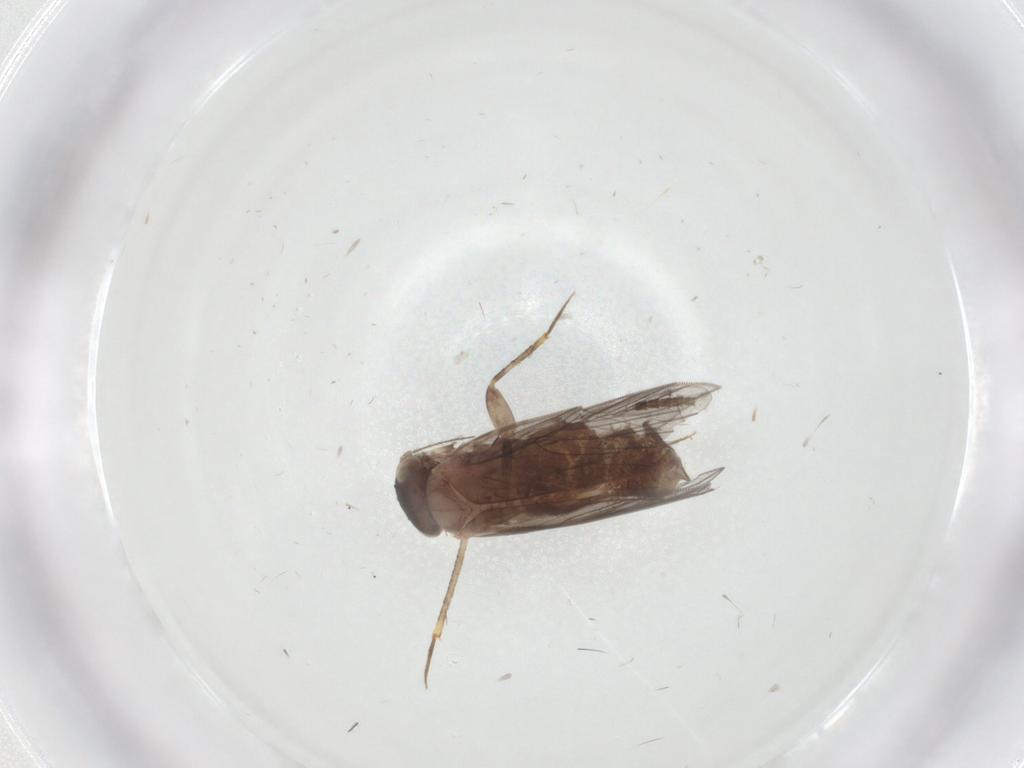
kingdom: Animalia
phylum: Arthropoda
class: Insecta
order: Psocodea
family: Lepidopsocidae
